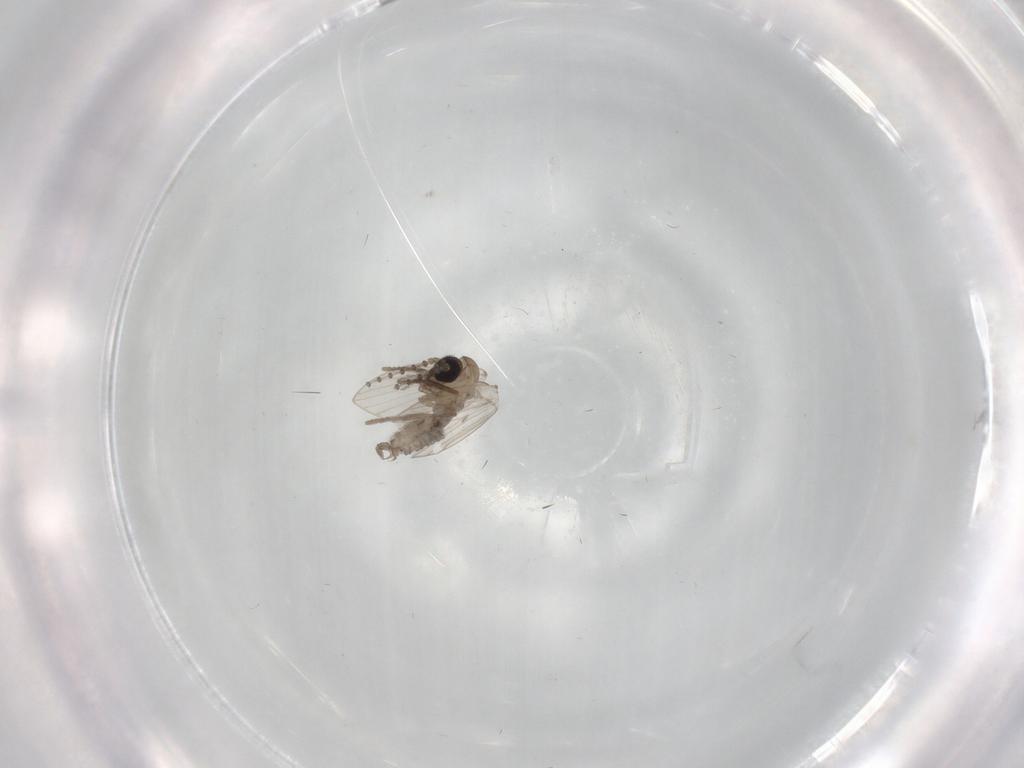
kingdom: Animalia
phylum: Arthropoda
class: Insecta
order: Diptera
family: Psychodidae
